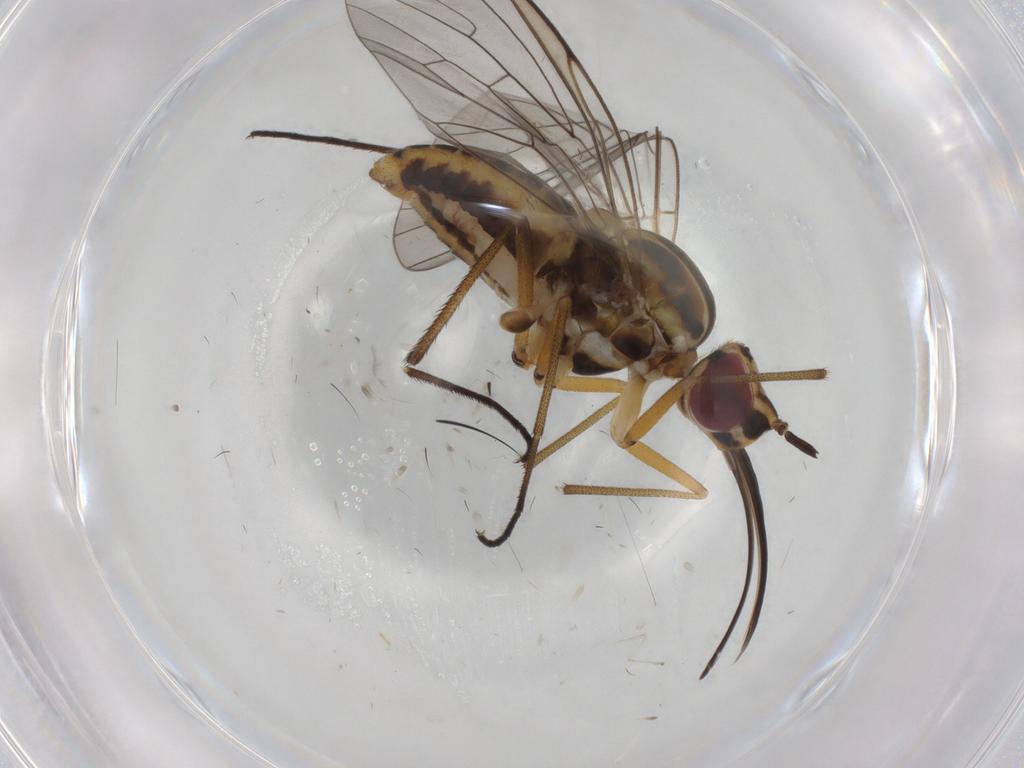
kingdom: Animalia
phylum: Arthropoda
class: Insecta
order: Diptera
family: Bombyliidae
